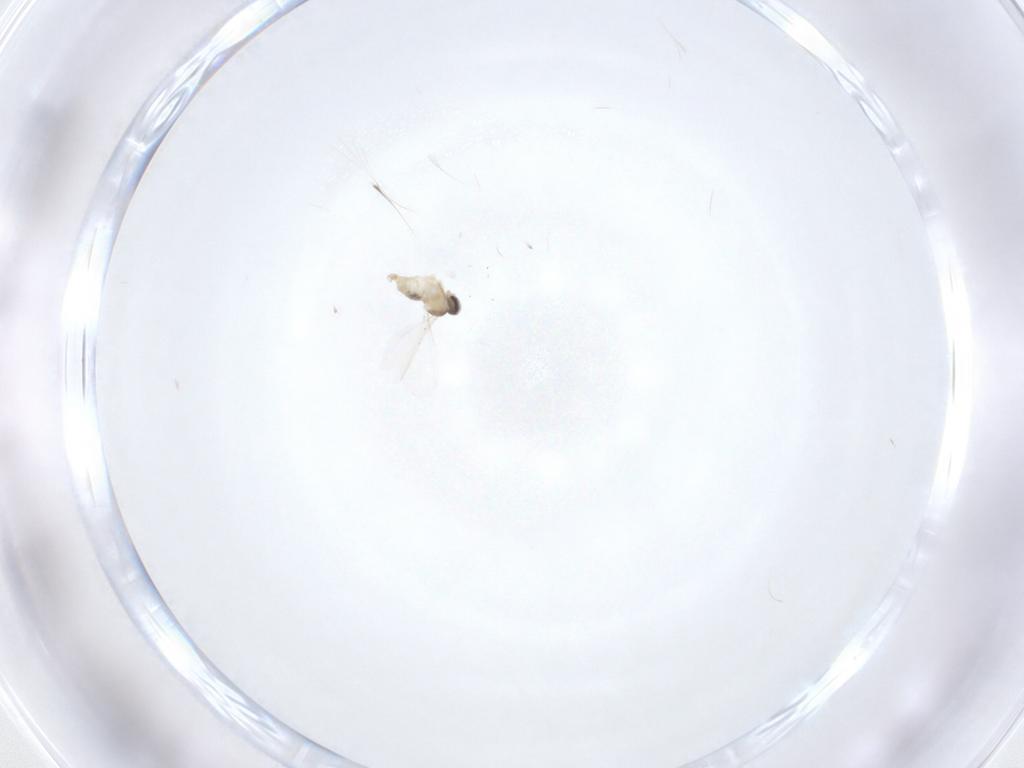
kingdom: Animalia
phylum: Arthropoda
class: Insecta
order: Diptera
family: Cecidomyiidae
